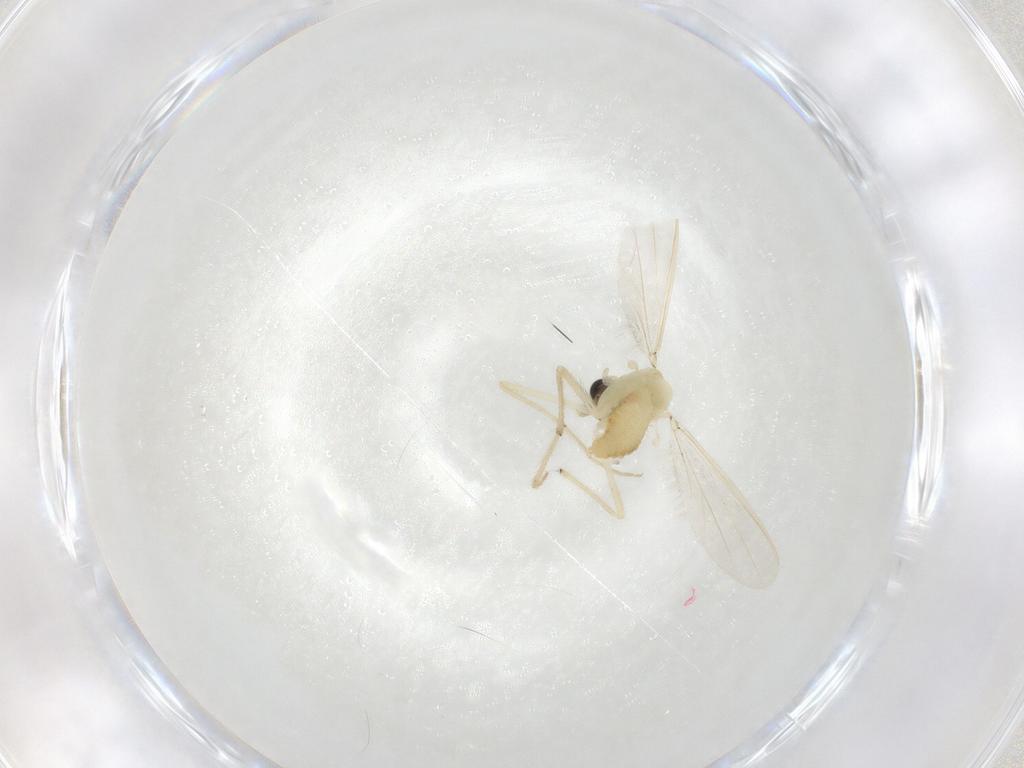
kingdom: Animalia
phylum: Arthropoda
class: Insecta
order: Diptera
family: Chironomidae
